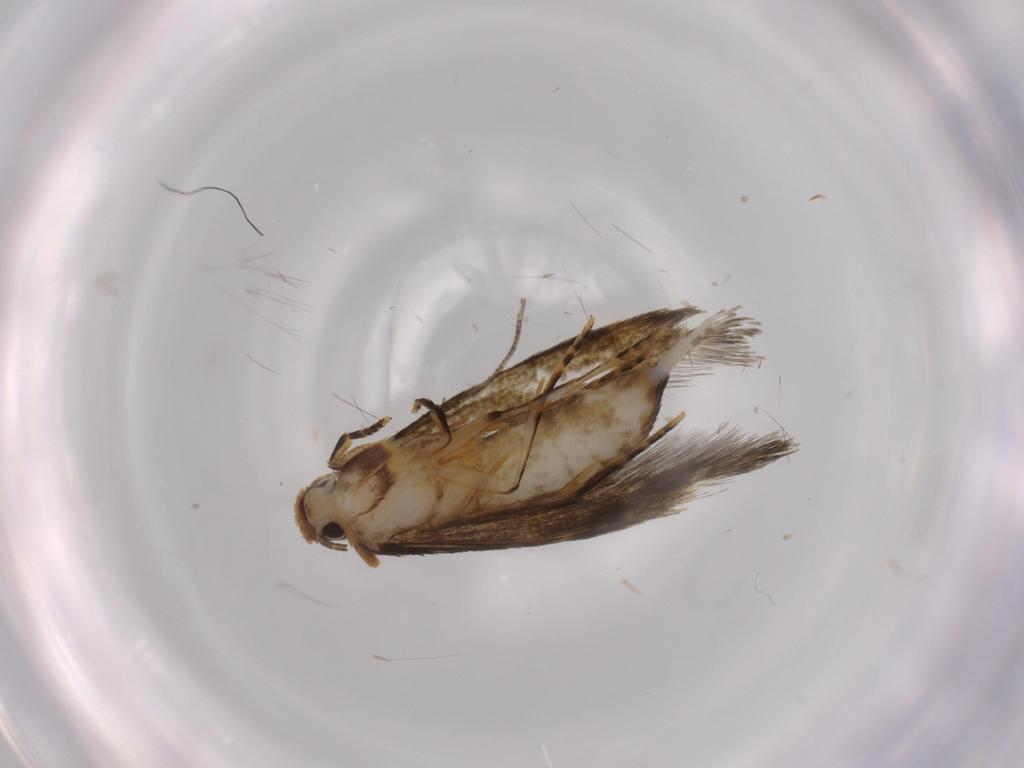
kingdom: Animalia
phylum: Arthropoda
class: Insecta
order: Lepidoptera
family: Tineidae
